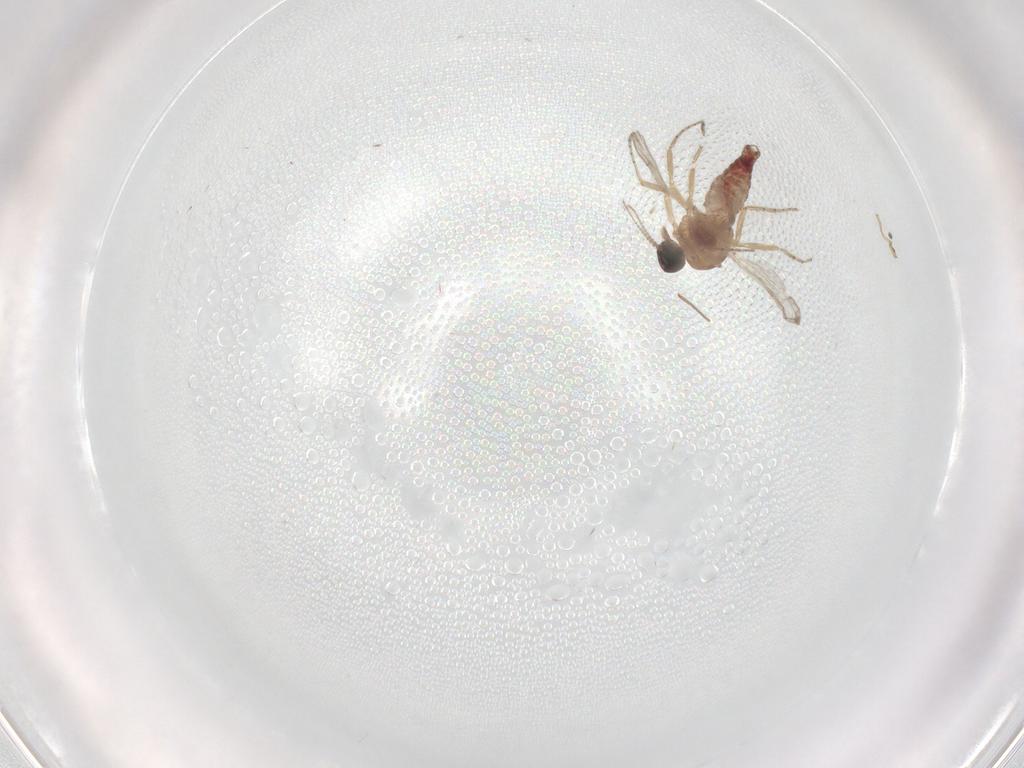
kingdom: Animalia
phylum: Arthropoda
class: Insecta
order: Diptera
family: Ceratopogonidae
